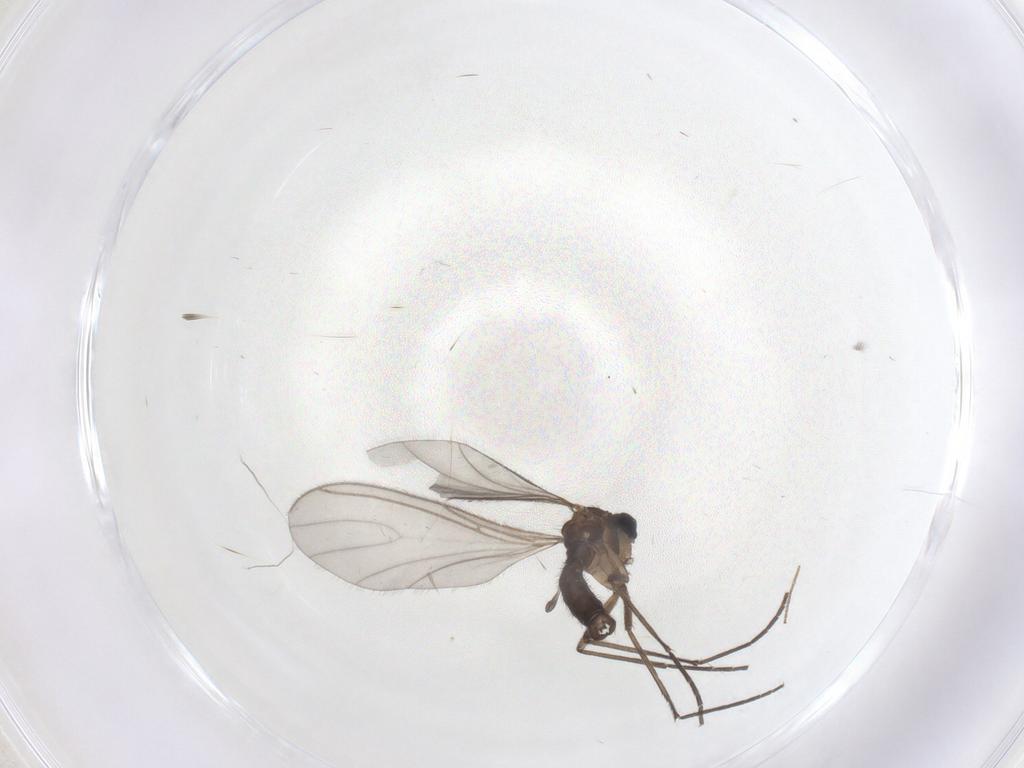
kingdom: Animalia
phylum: Arthropoda
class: Insecta
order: Diptera
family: Sciaridae
